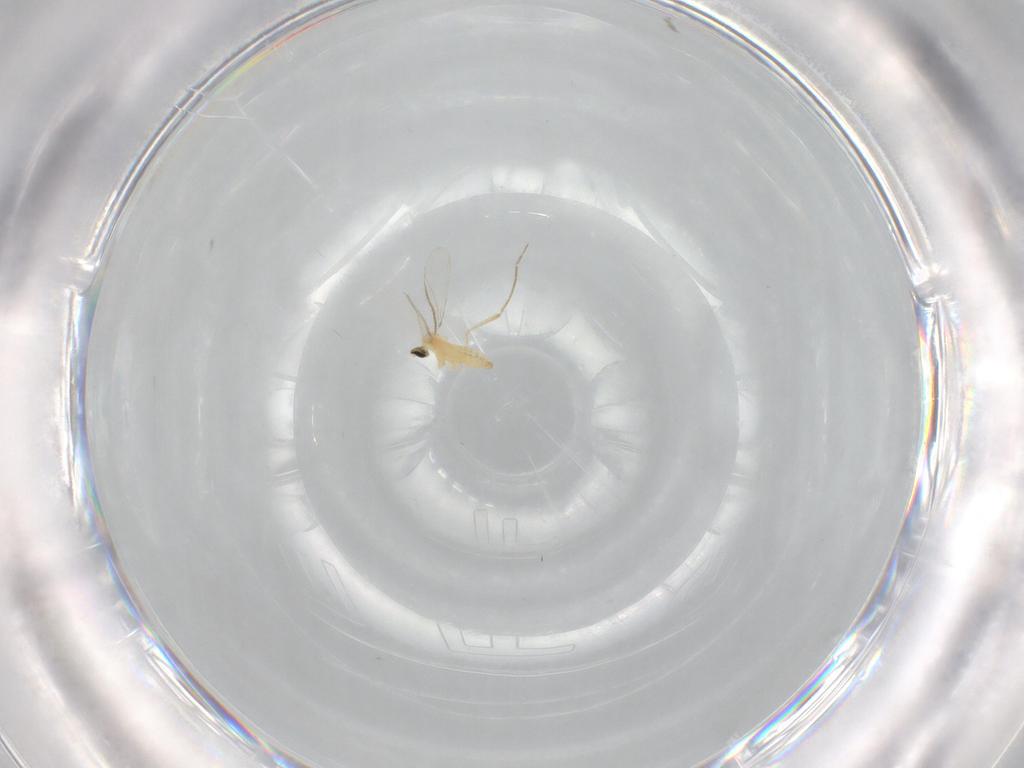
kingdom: Animalia
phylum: Arthropoda
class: Insecta
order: Diptera
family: Cecidomyiidae
